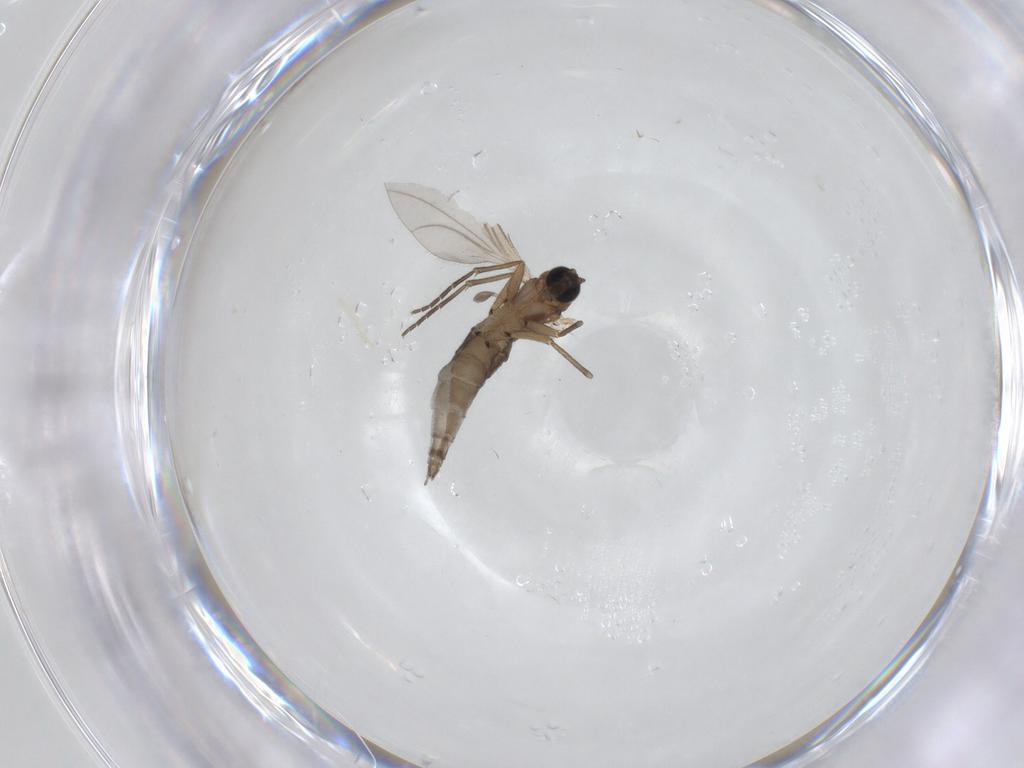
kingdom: Animalia
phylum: Arthropoda
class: Insecta
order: Diptera
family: Sciaridae
